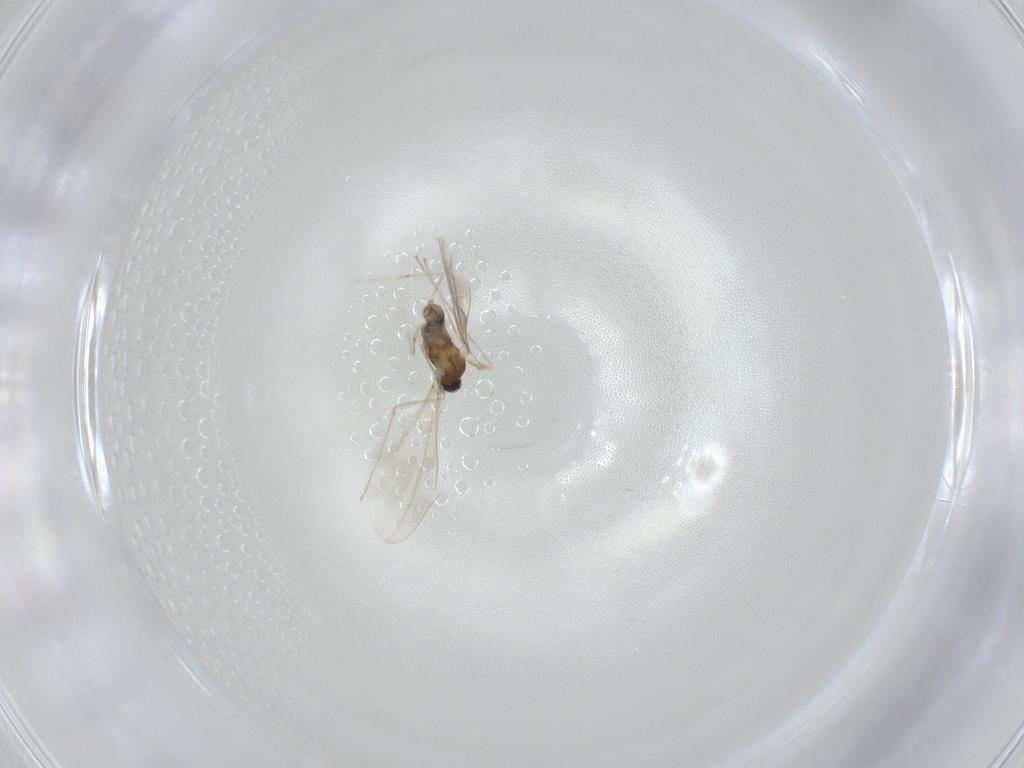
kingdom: Animalia
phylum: Arthropoda
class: Insecta
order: Diptera
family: Cecidomyiidae
